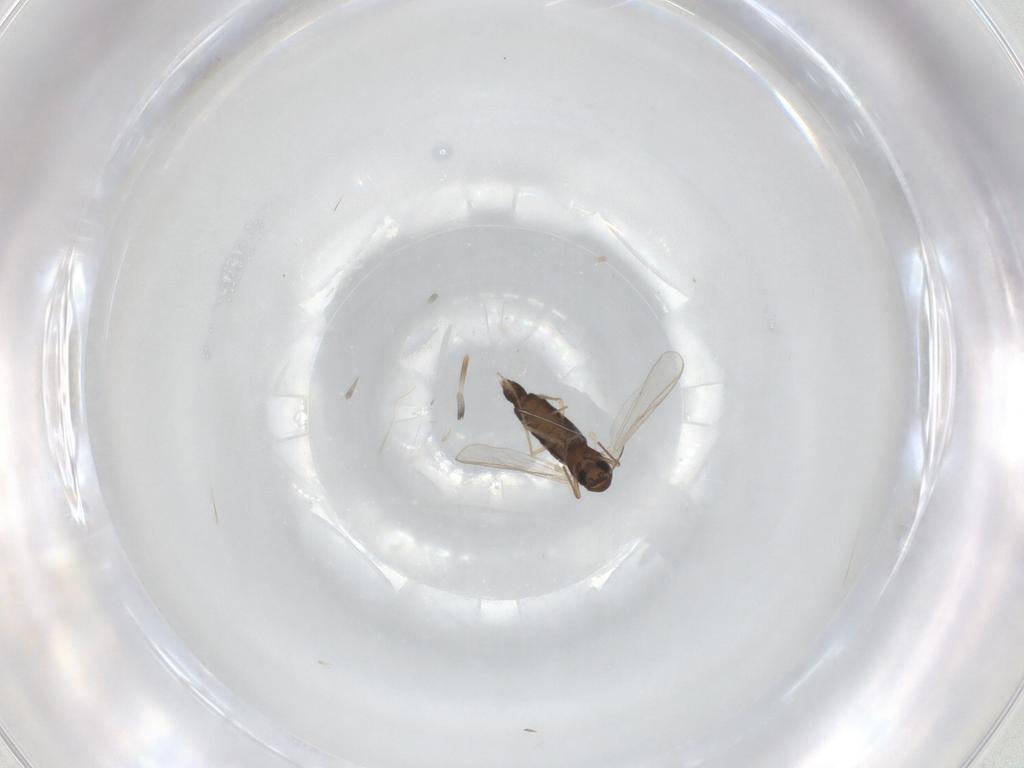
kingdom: Animalia
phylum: Arthropoda
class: Insecta
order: Diptera
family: Chironomidae
